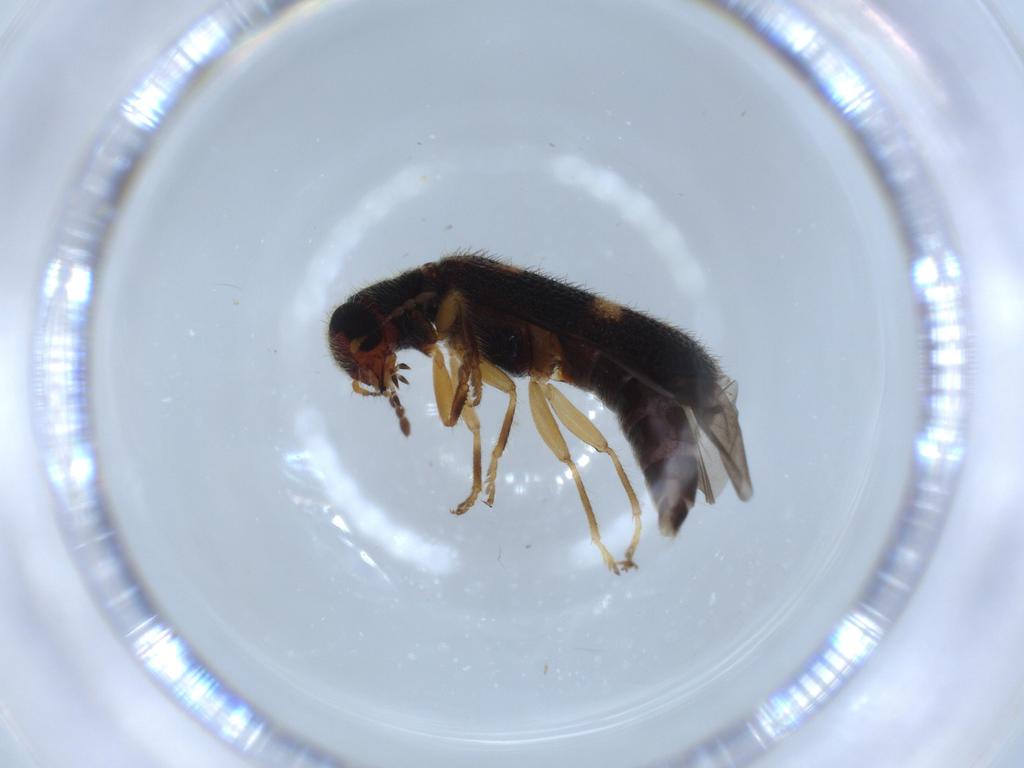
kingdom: Animalia
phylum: Arthropoda
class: Insecta
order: Coleoptera
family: Cleridae
